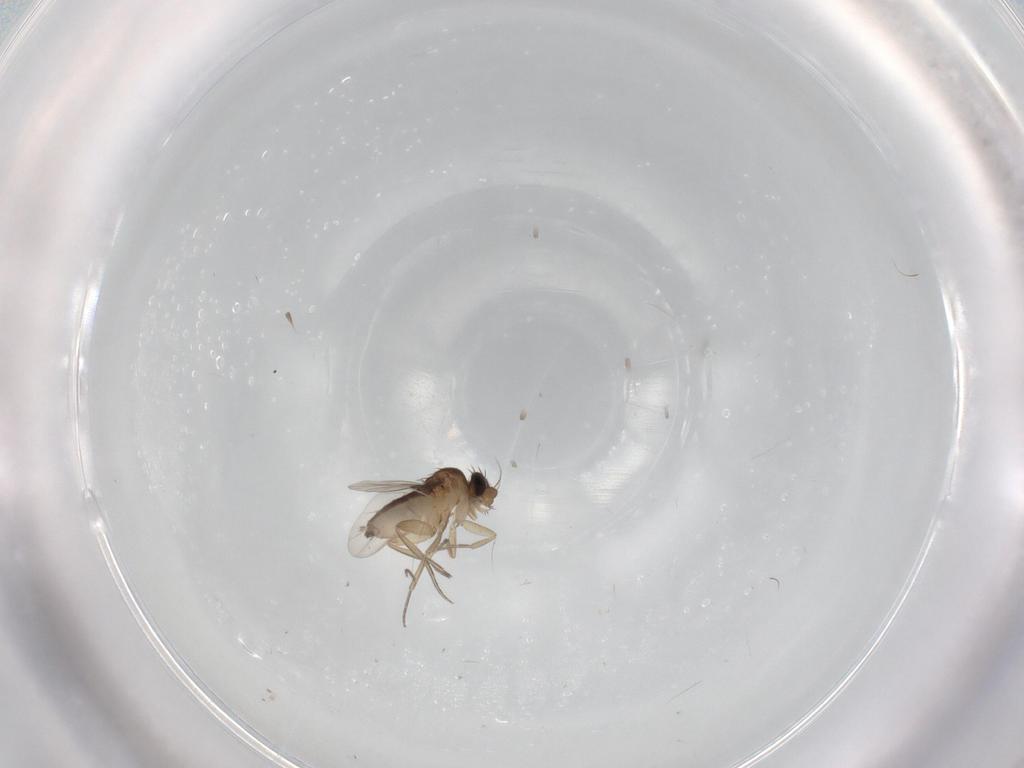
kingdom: Animalia
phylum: Arthropoda
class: Insecta
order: Diptera
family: Phoridae
